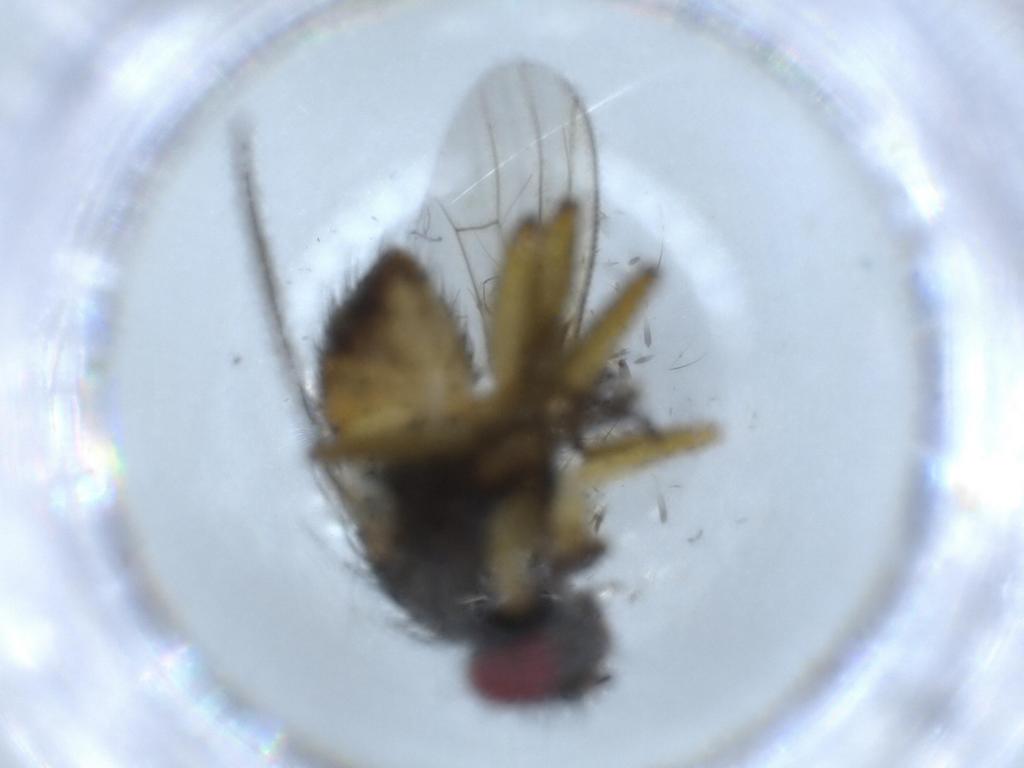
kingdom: Animalia
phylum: Arthropoda
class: Insecta
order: Diptera
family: Muscidae
